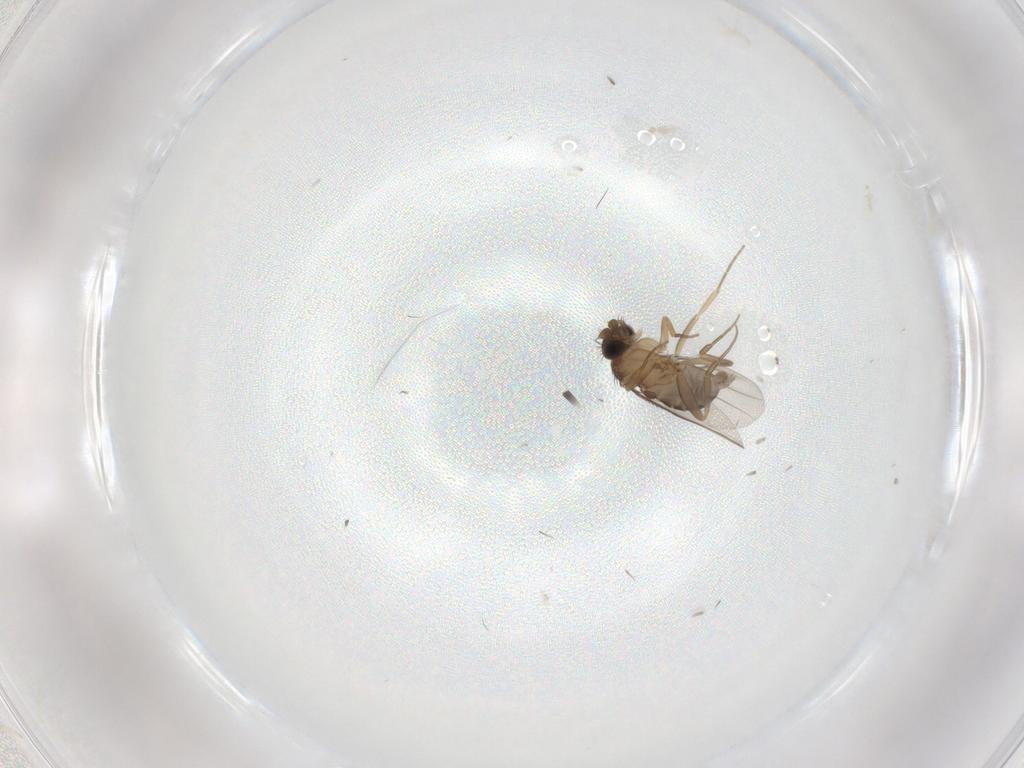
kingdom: Animalia
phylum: Arthropoda
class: Insecta
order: Diptera
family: Phoridae
